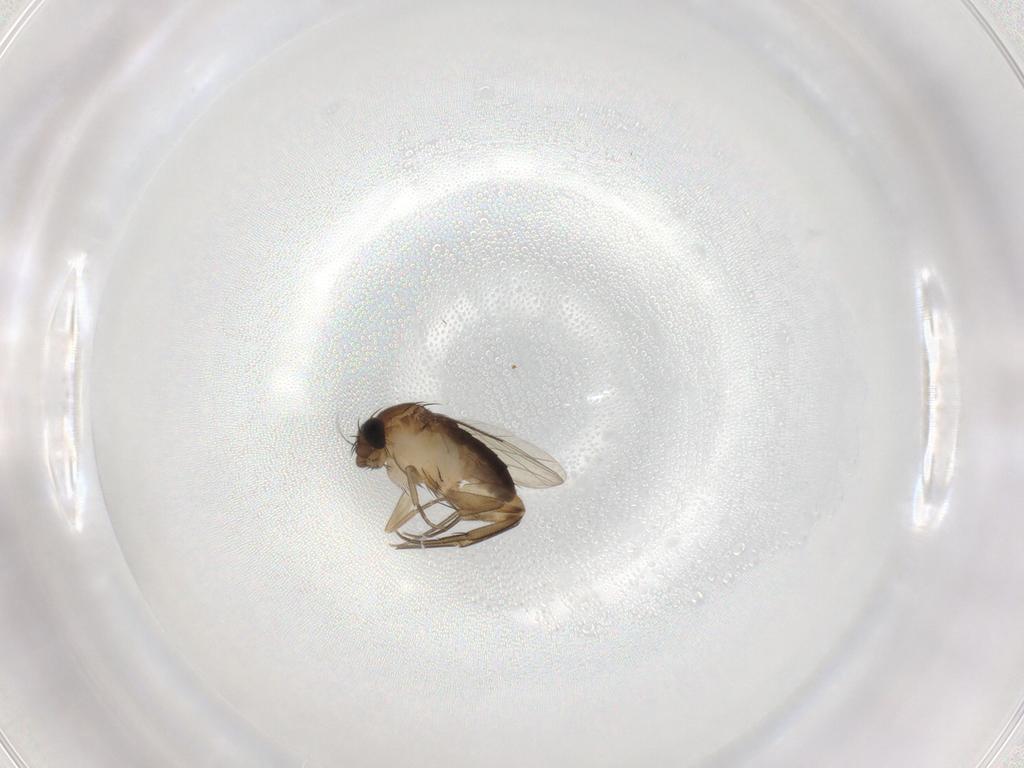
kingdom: Animalia
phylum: Arthropoda
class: Insecta
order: Diptera
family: Phoridae
